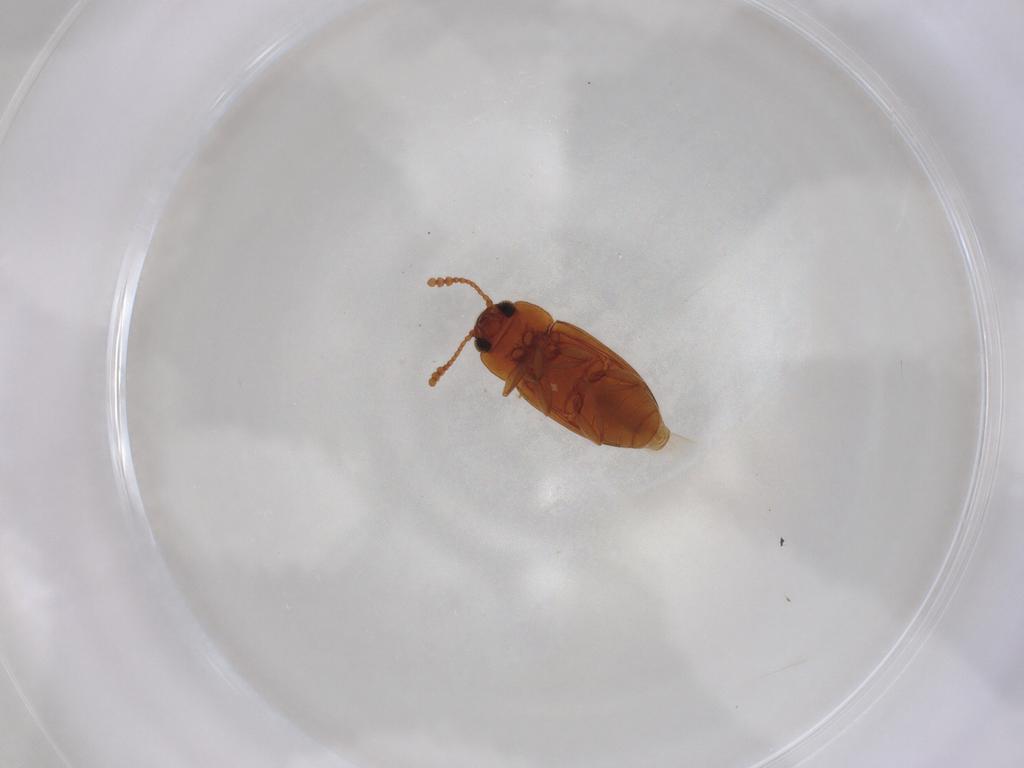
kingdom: Animalia
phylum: Arthropoda
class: Insecta
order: Coleoptera
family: Erotylidae
